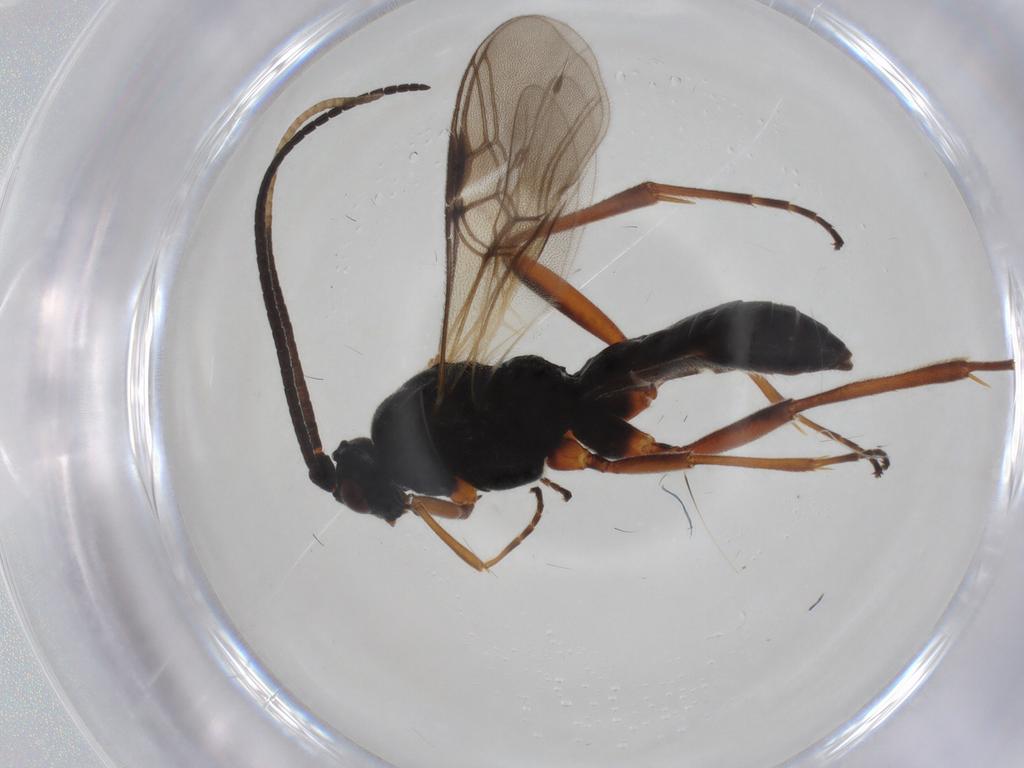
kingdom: Animalia
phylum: Arthropoda
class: Insecta
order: Hymenoptera
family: Braconidae
